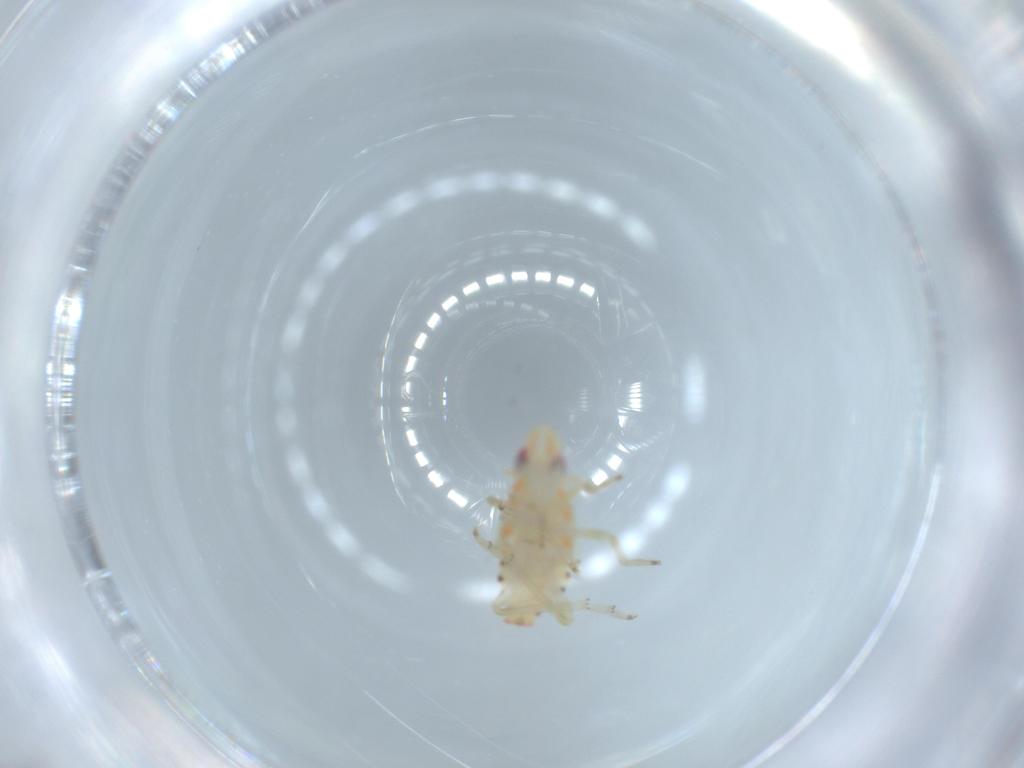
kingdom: Animalia
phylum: Arthropoda
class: Insecta
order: Hemiptera
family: Tropiduchidae
